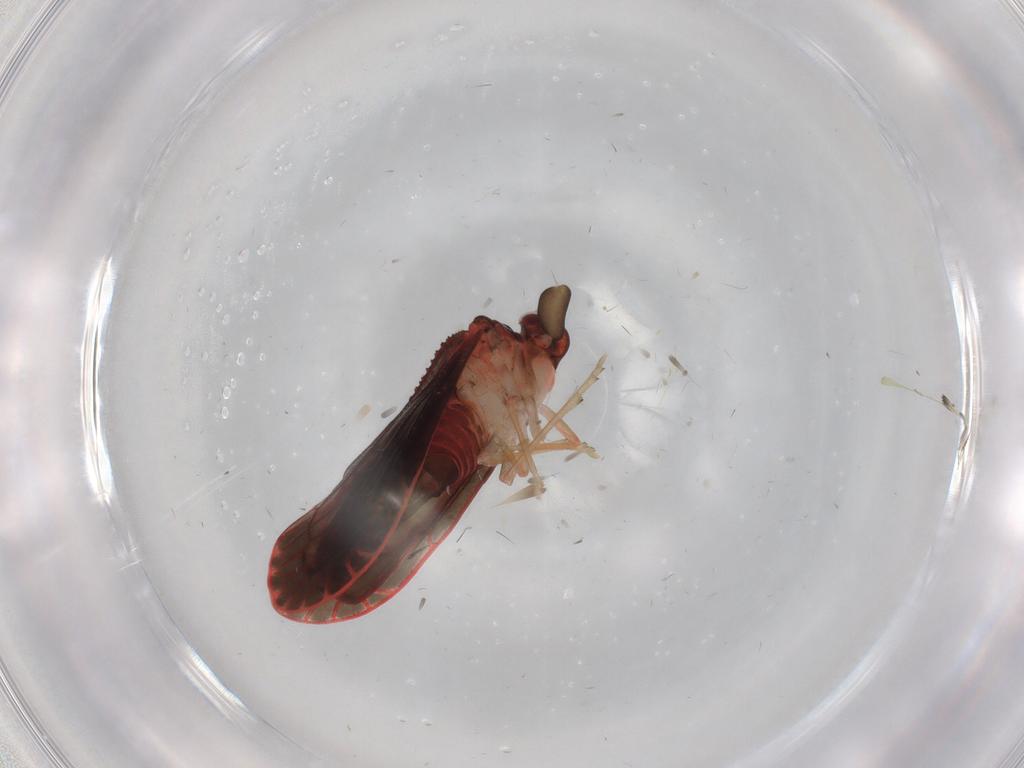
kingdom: Animalia
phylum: Arthropoda
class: Insecta
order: Hemiptera
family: Derbidae
